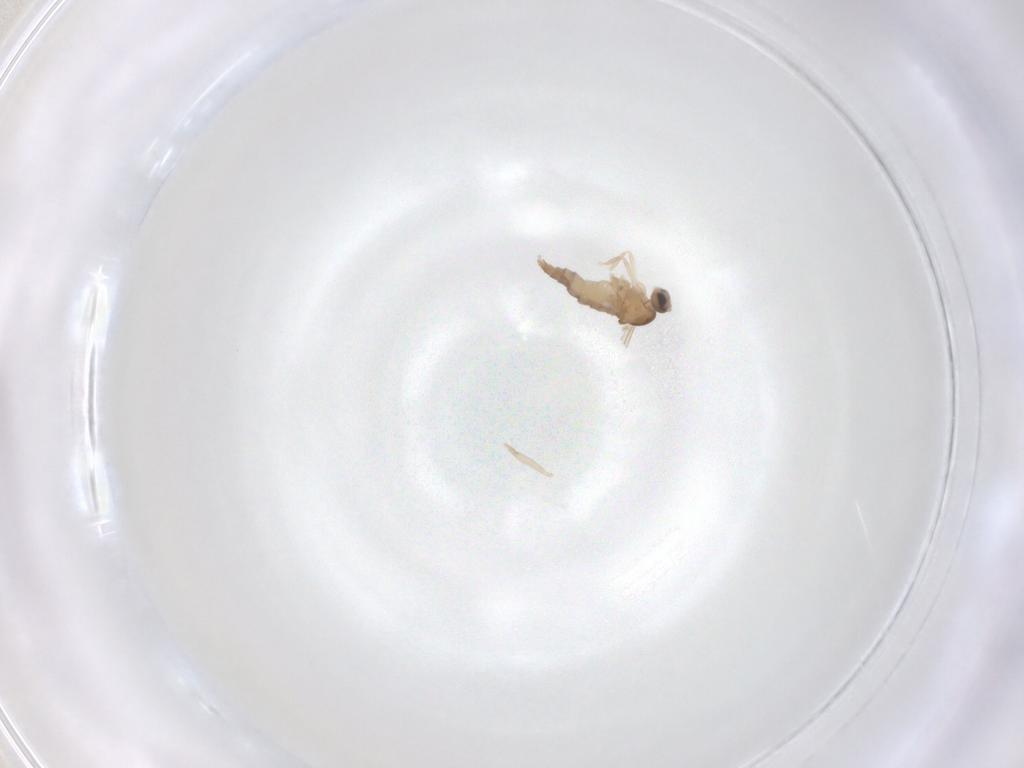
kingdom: Animalia
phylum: Arthropoda
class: Insecta
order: Diptera
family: Cecidomyiidae
